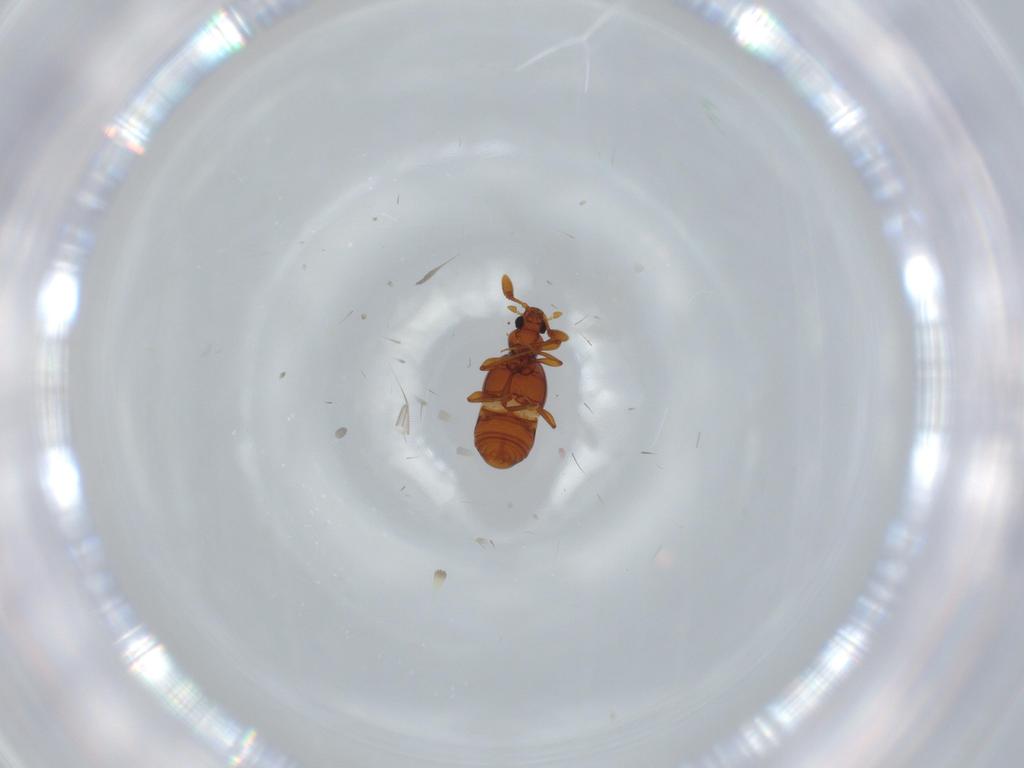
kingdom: Animalia
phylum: Arthropoda
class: Insecta
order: Coleoptera
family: Staphylinidae
